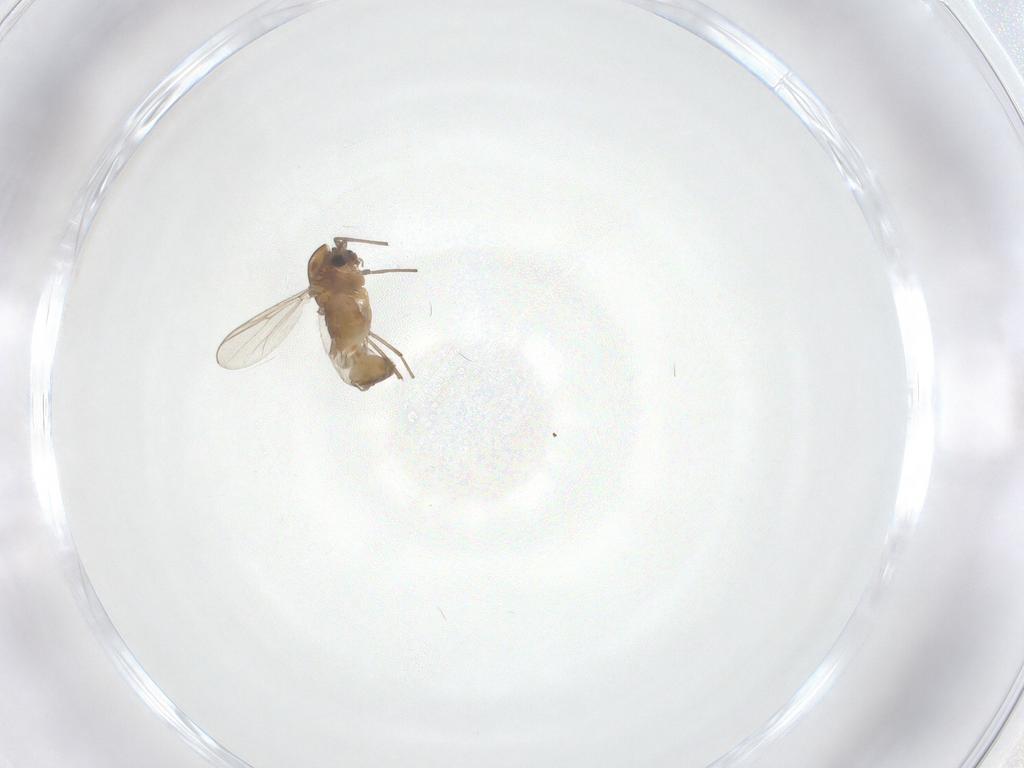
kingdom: Animalia
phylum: Arthropoda
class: Insecta
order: Diptera
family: Chironomidae
